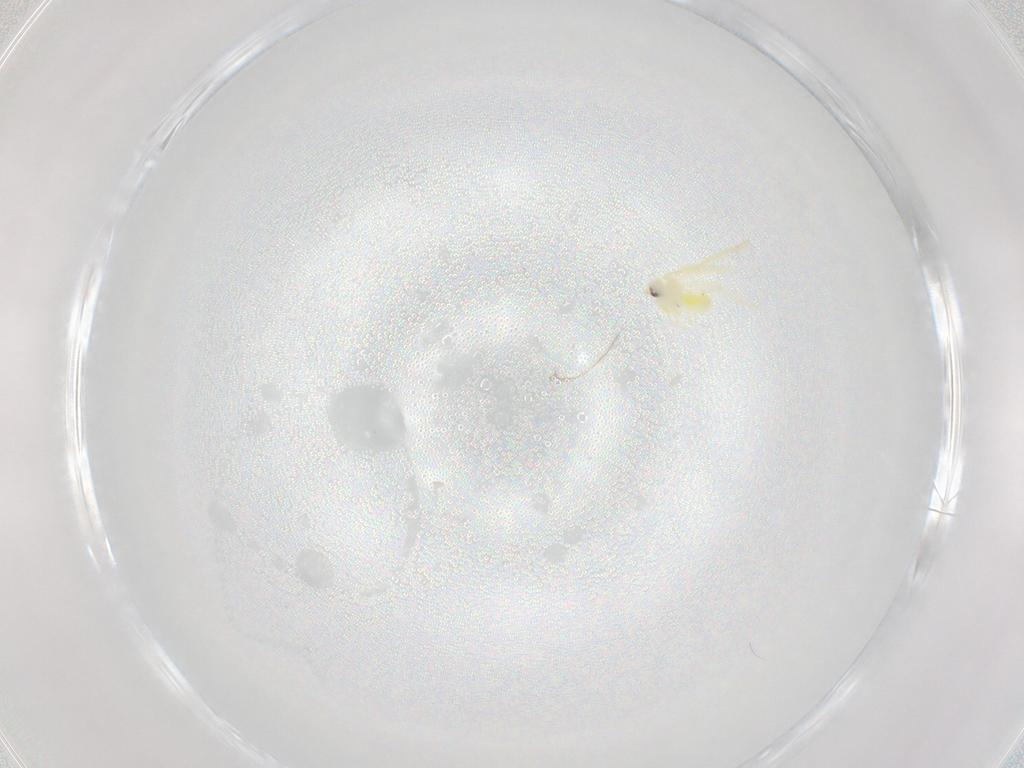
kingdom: Animalia
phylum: Arthropoda
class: Insecta
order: Hemiptera
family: Aleyrodidae
